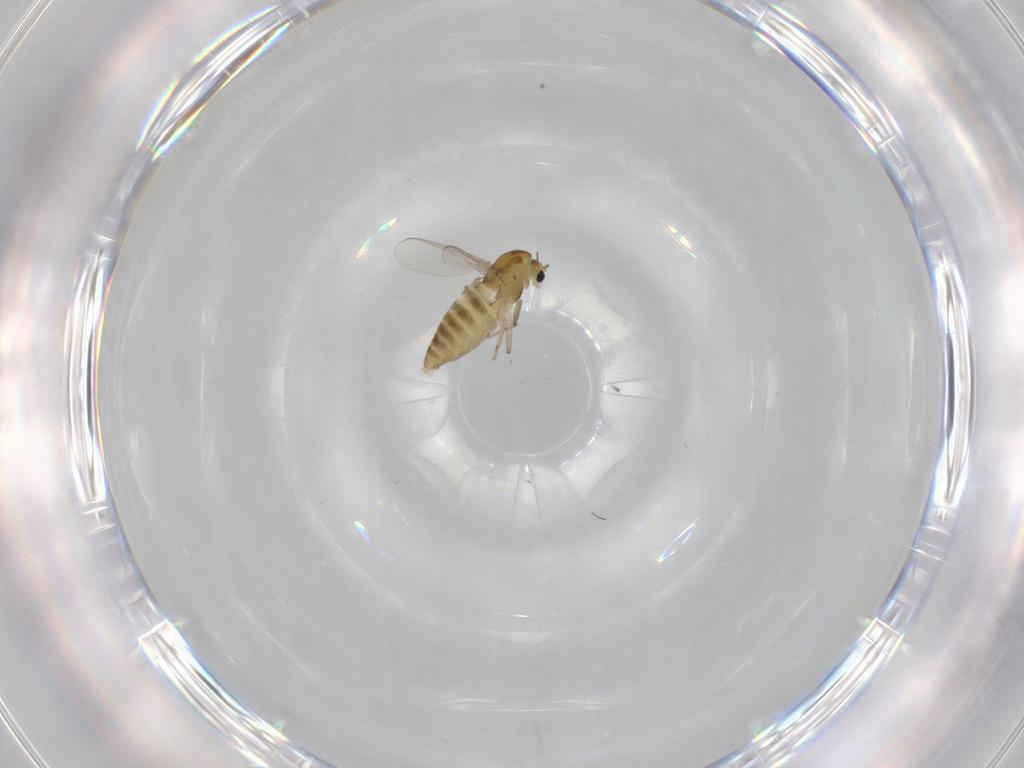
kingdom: Animalia
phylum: Arthropoda
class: Insecta
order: Diptera
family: Chironomidae
